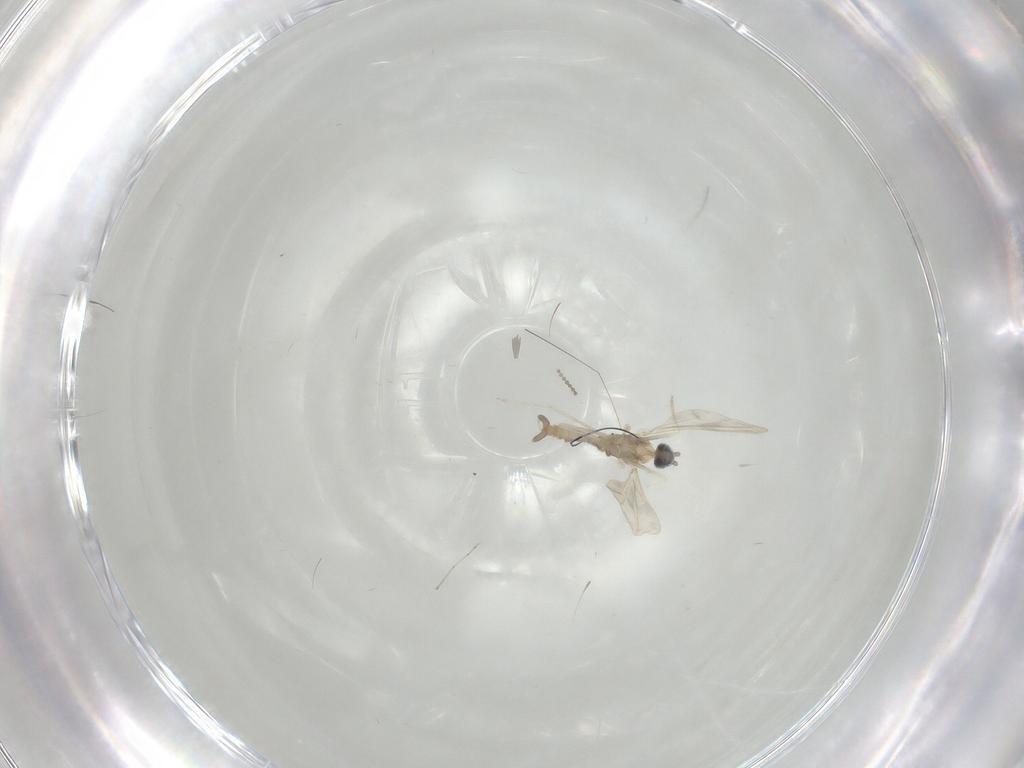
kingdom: Animalia
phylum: Arthropoda
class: Insecta
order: Diptera
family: Chironomidae
